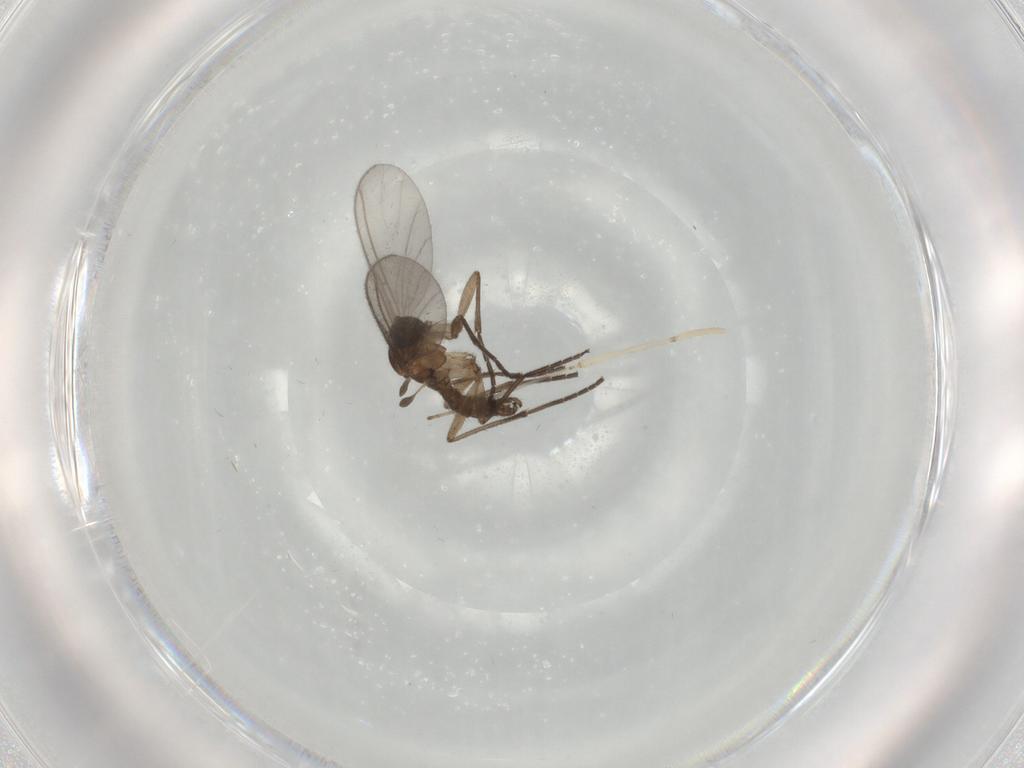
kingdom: Animalia
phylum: Arthropoda
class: Insecta
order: Diptera
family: Sciaridae
